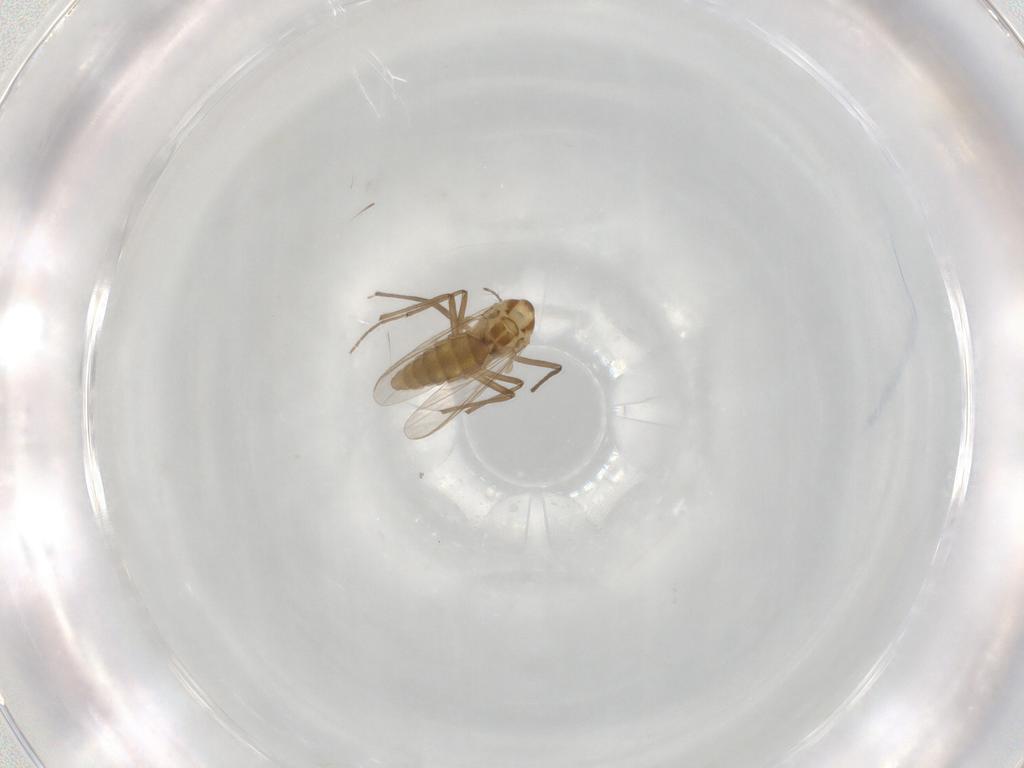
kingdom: Animalia
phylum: Arthropoda
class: Insecta
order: Diptera
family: Chironomidae
